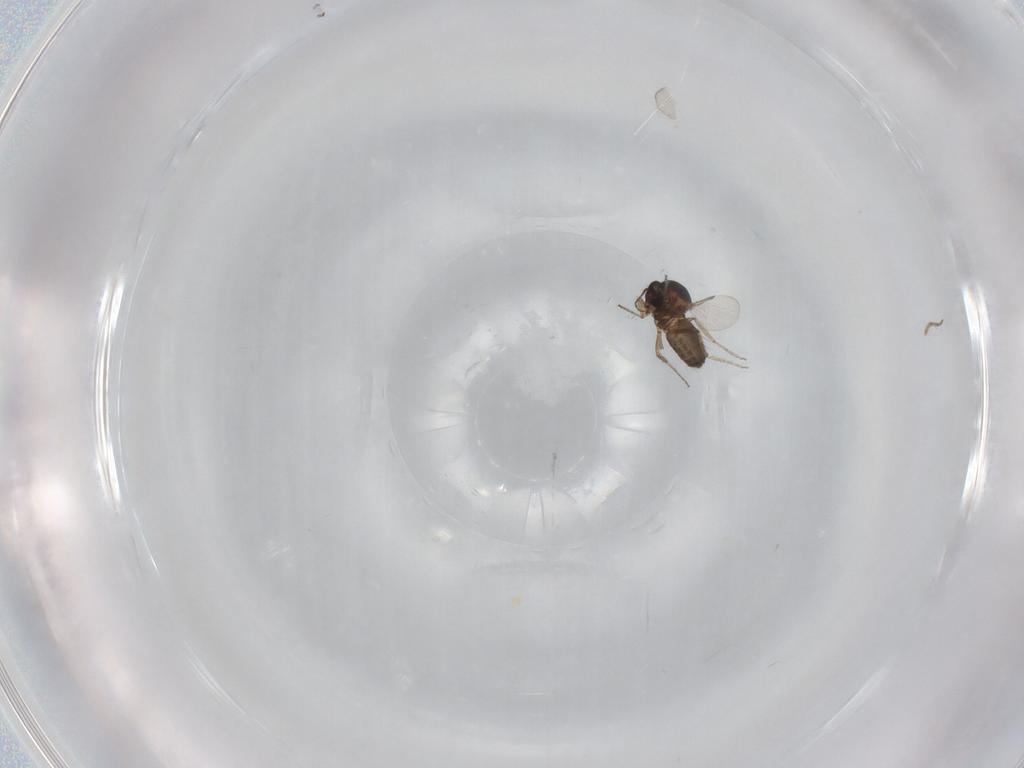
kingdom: Animalia
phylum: Arthropoda
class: Insecta
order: Diptera
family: Ceratopogonidae
